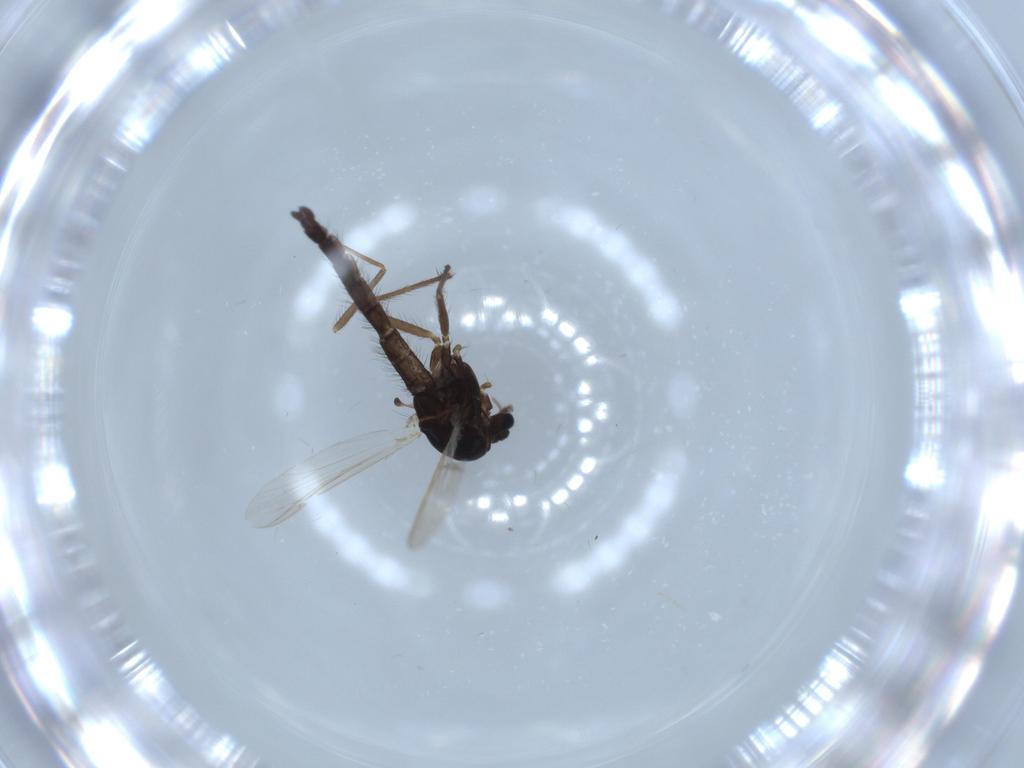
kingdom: Animalia
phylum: Arthropoda
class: Insecta
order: Diptera
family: Chironomidae
